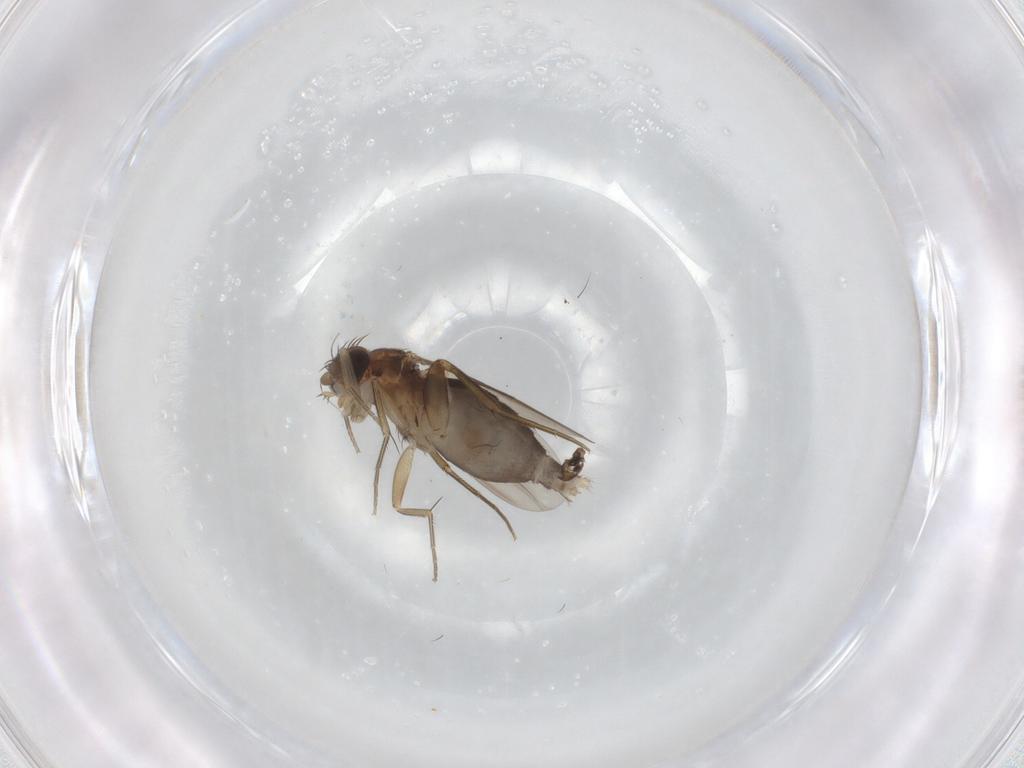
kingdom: Animalia
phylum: Arthropoda
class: Insecta
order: Diptera
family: Phoridae
